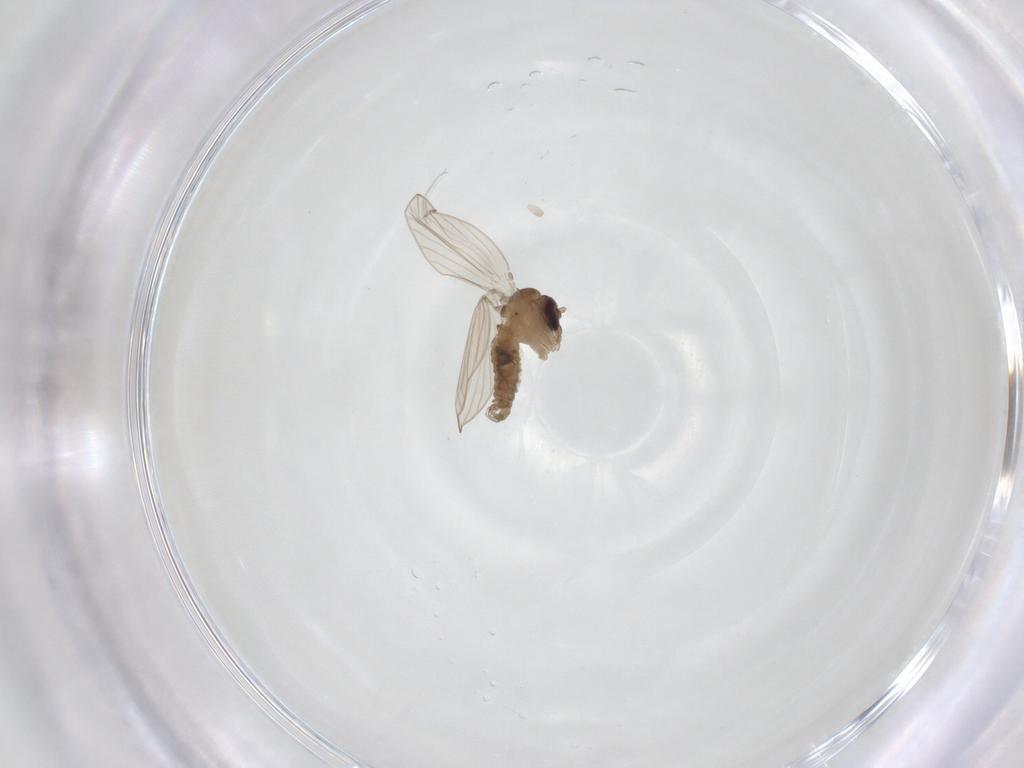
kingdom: Animalia
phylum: Arthropoda
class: Insecta
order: Diptera
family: Psychodidae
